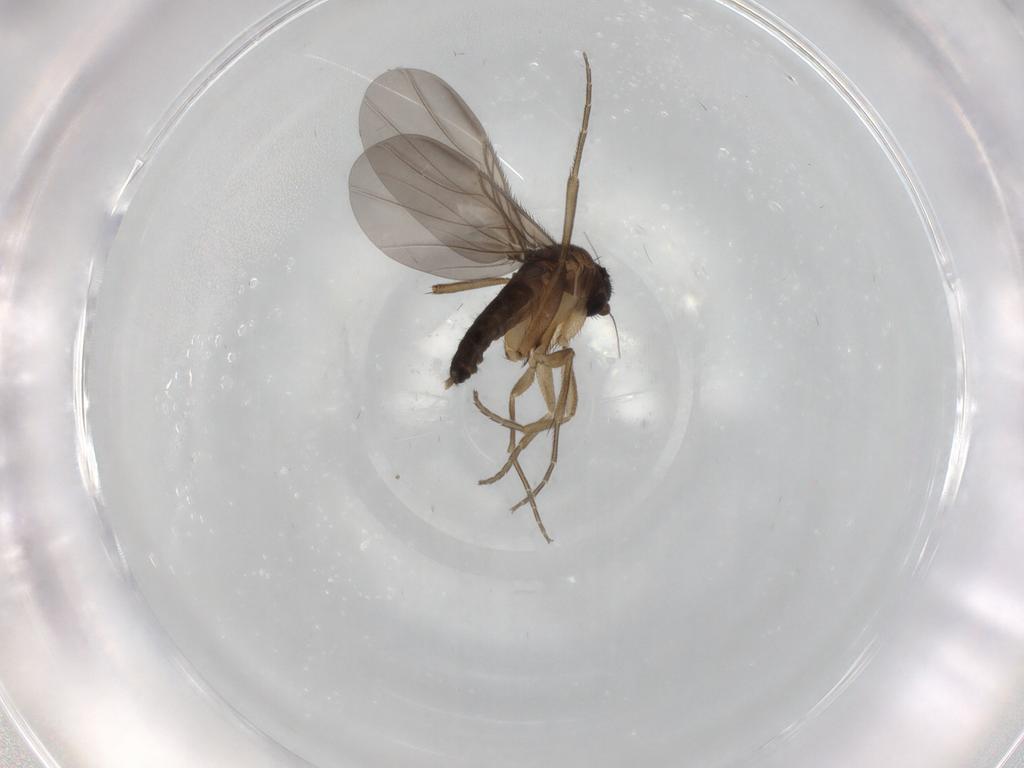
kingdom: Animalia
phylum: Arthropoda
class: Insecta
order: Diptera
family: Phoridae
